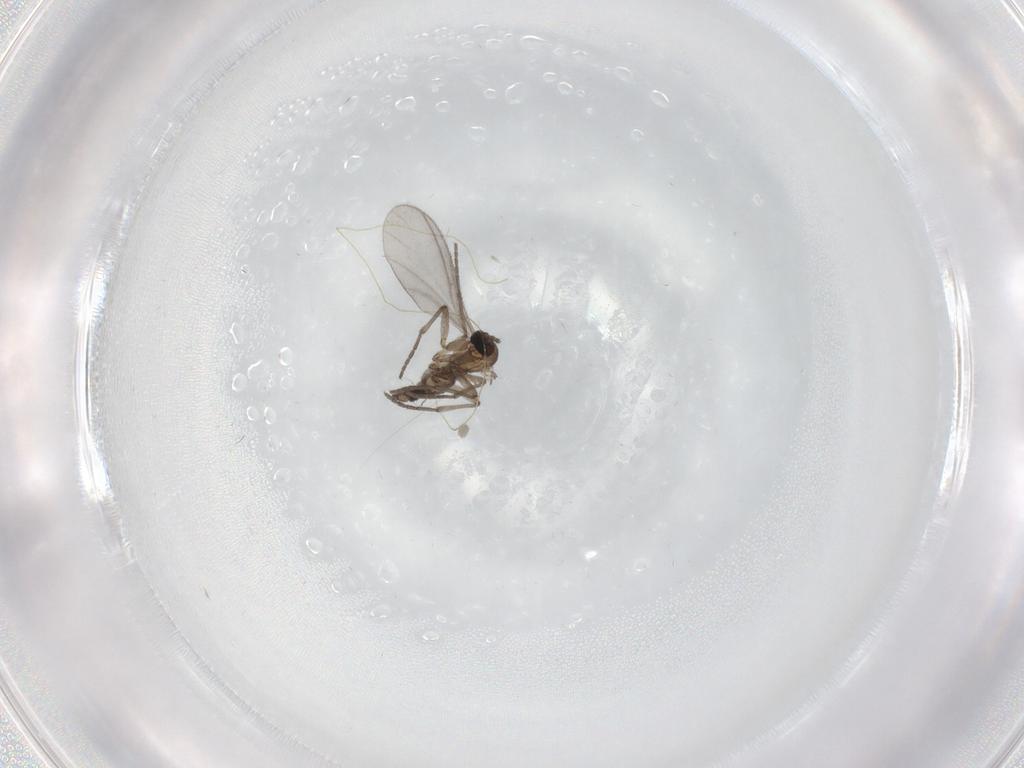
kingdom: Animalia
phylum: Arthropoda
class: Insecta
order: Diptera
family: Sciaridae
